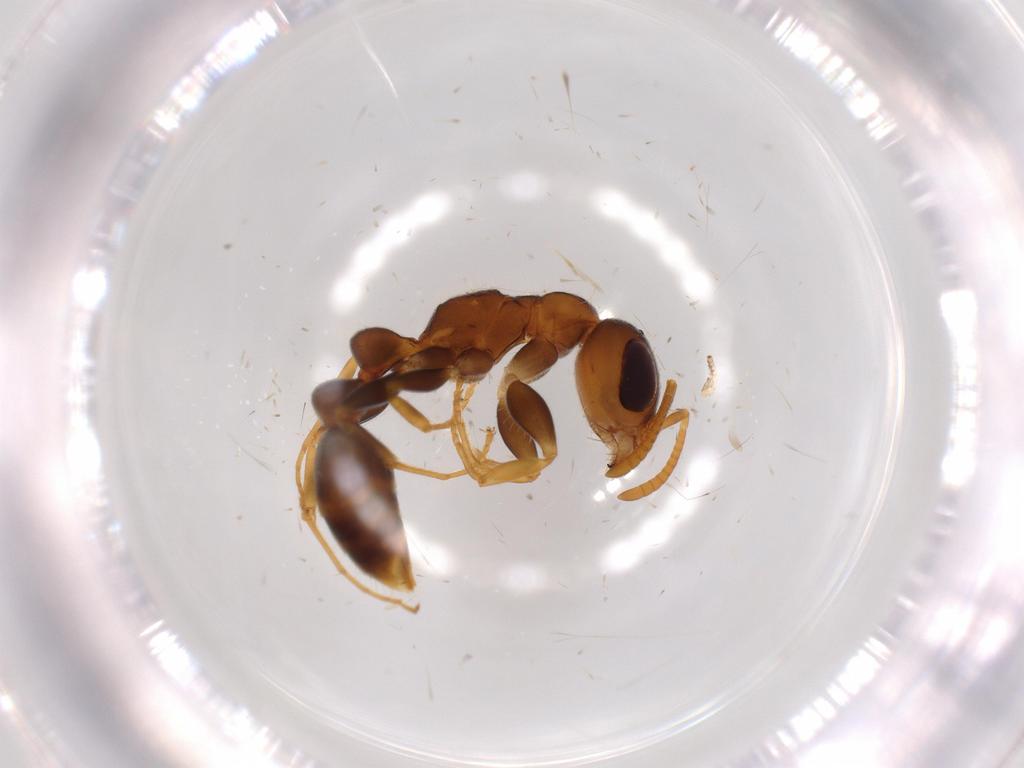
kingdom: Animalia
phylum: Arthropoda
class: Insecta
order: Hymenoptera
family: Formicidae
